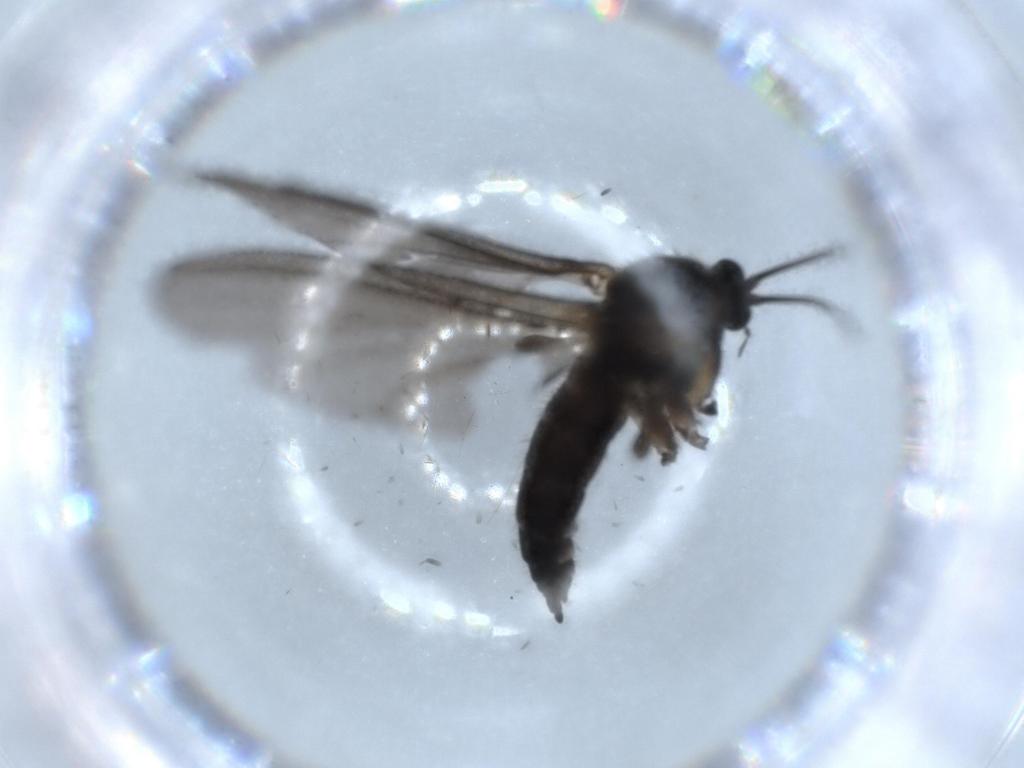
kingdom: Animalia
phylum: Arthropoda
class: Insecta
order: Diptera
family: Sciaridae
